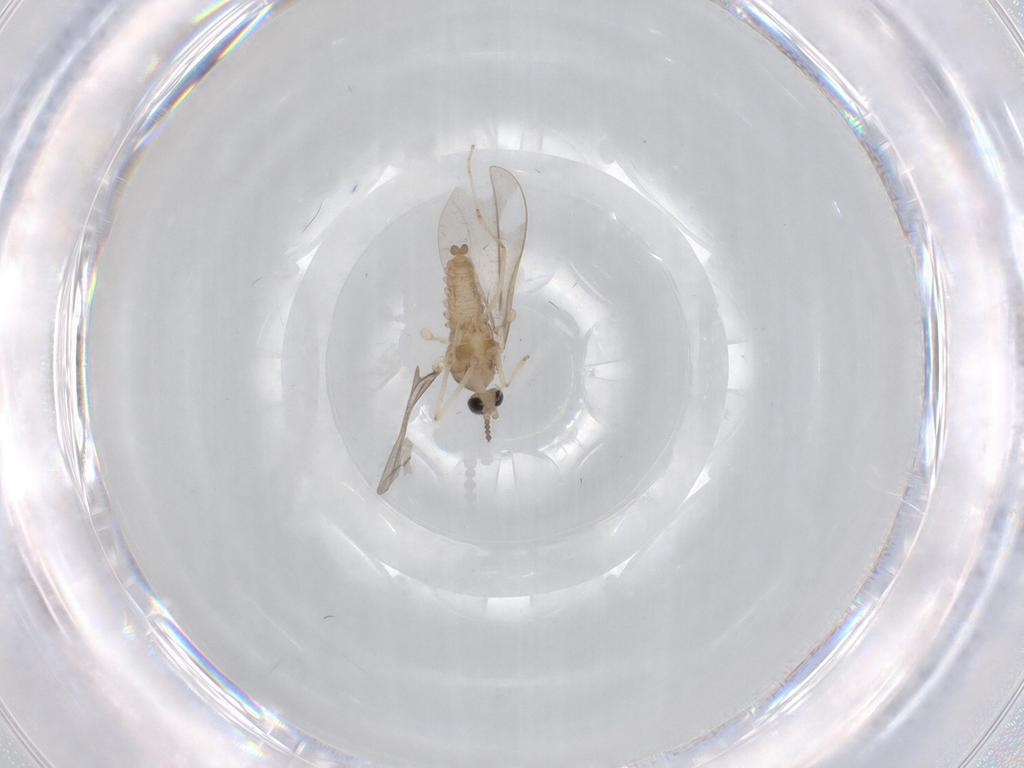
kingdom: Animalia
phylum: Arthropoda
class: Insecta
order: Diptera
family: Cecidomyiidae
